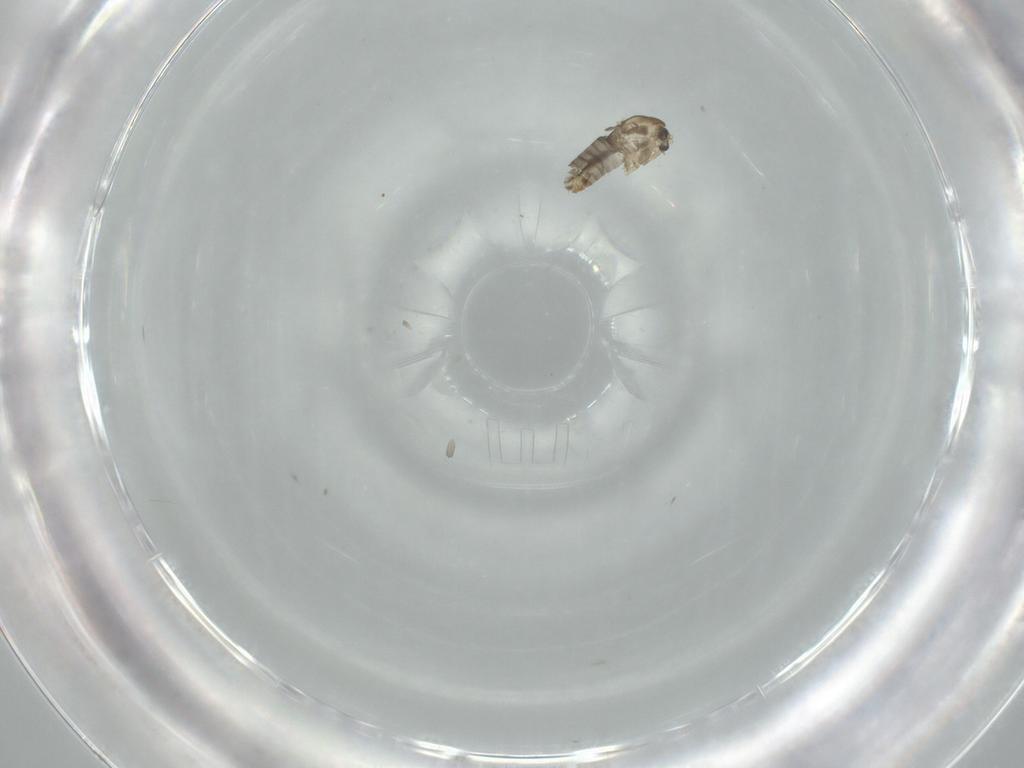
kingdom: Animalia
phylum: Arthropoda
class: Insecta
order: Diptera
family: Chironomidae
